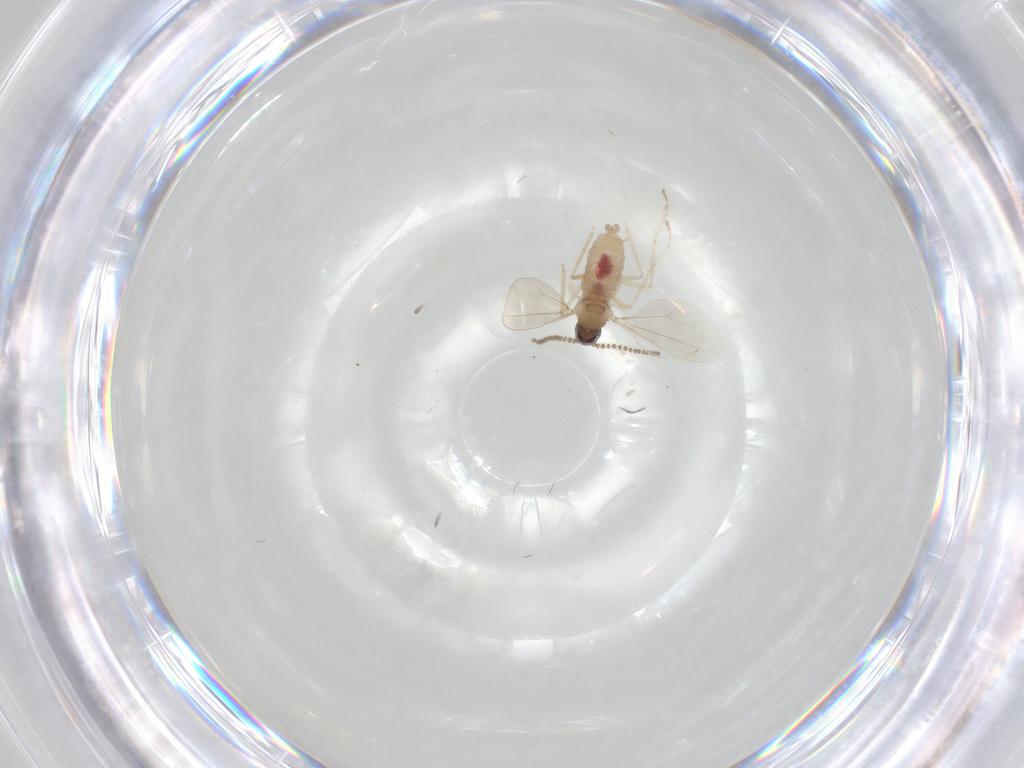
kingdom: Animalia
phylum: Arthropoda
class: Insecta
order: Diptera
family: Cecidomyiidae
